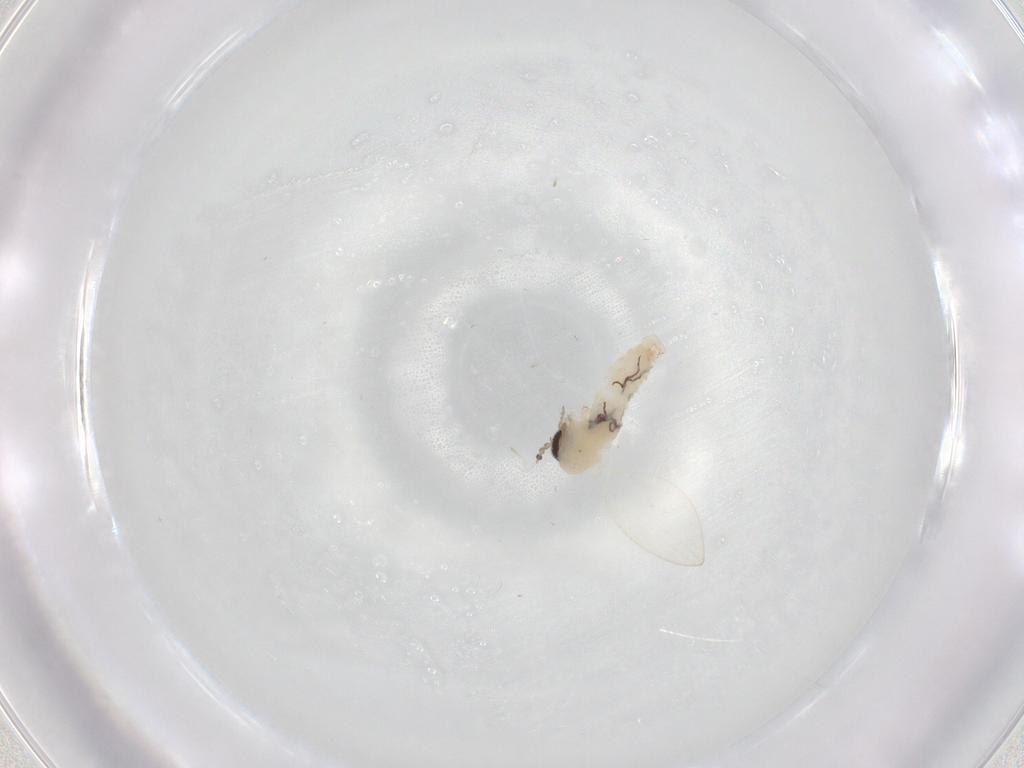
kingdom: Animalia
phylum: Arthropoda
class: Insecta
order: Diptera
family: Psychodidae
